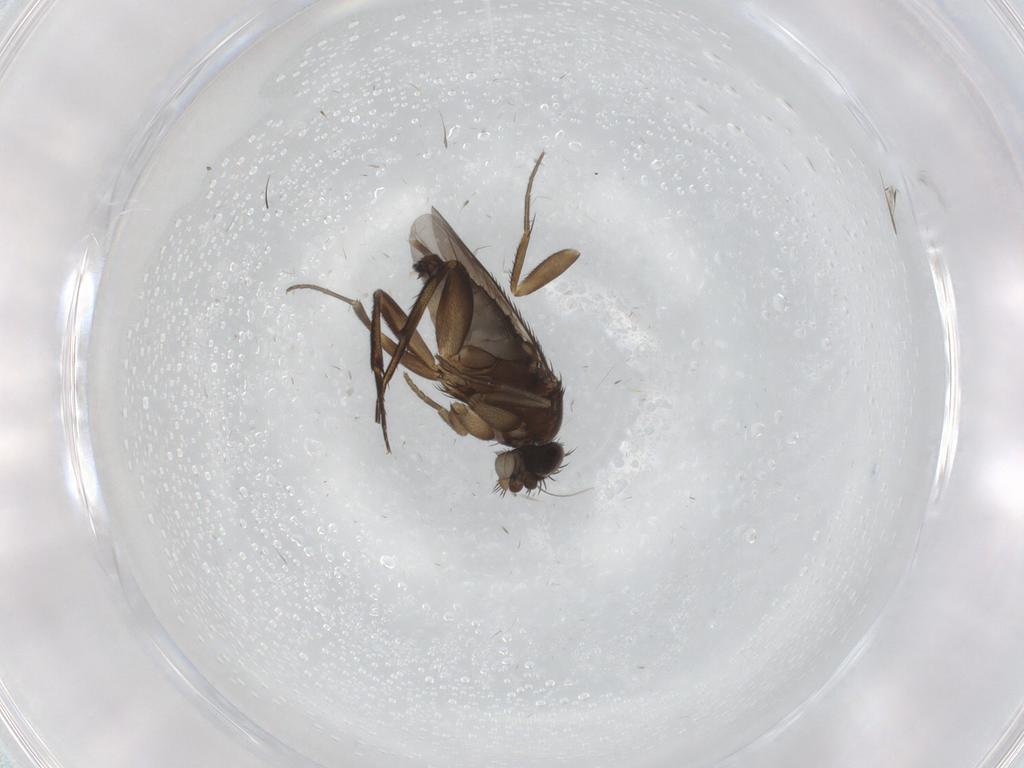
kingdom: Animalia
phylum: Arthropoda
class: Insecta
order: Diptera
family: Phoridae
